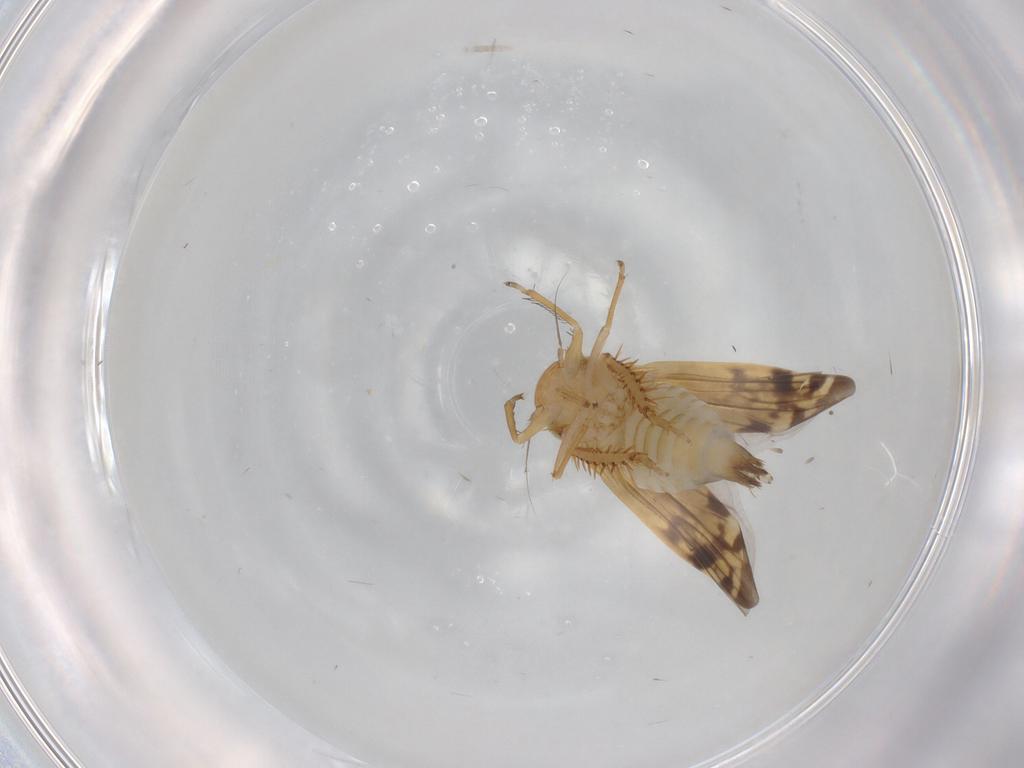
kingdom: Animalia
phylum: Arthropoda
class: Insecta
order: Hemiptera
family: Cicadellidae
